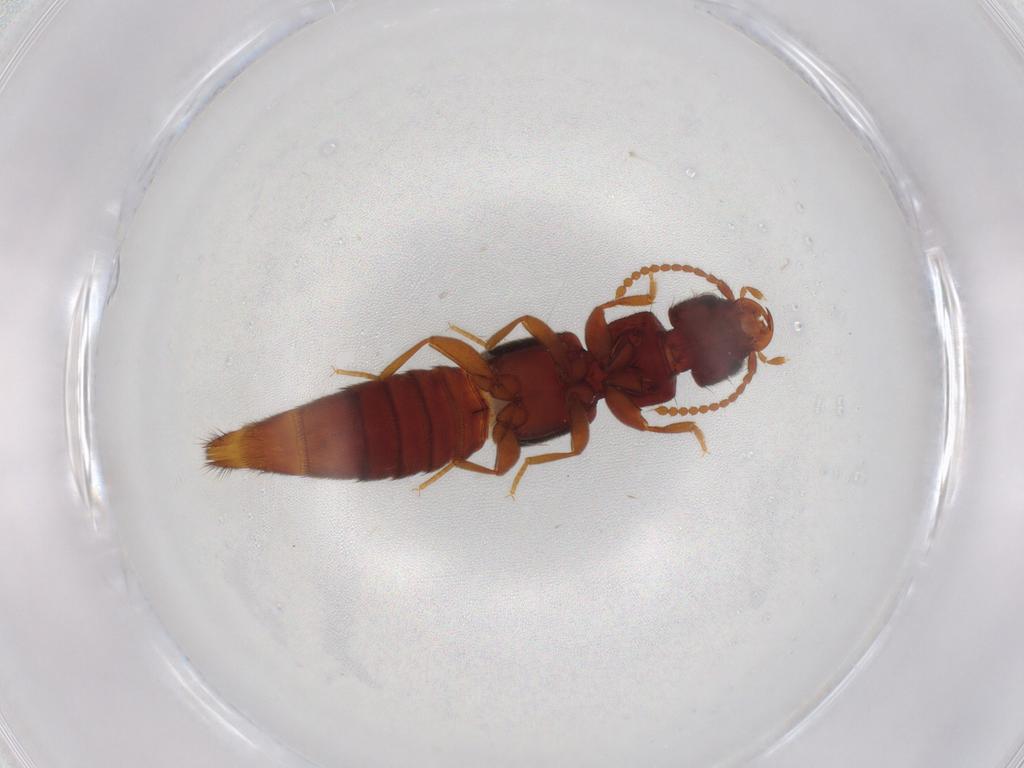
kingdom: Animalia
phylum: Arthropoda
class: Insecta
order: Coleoptera
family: Staphylinidae
